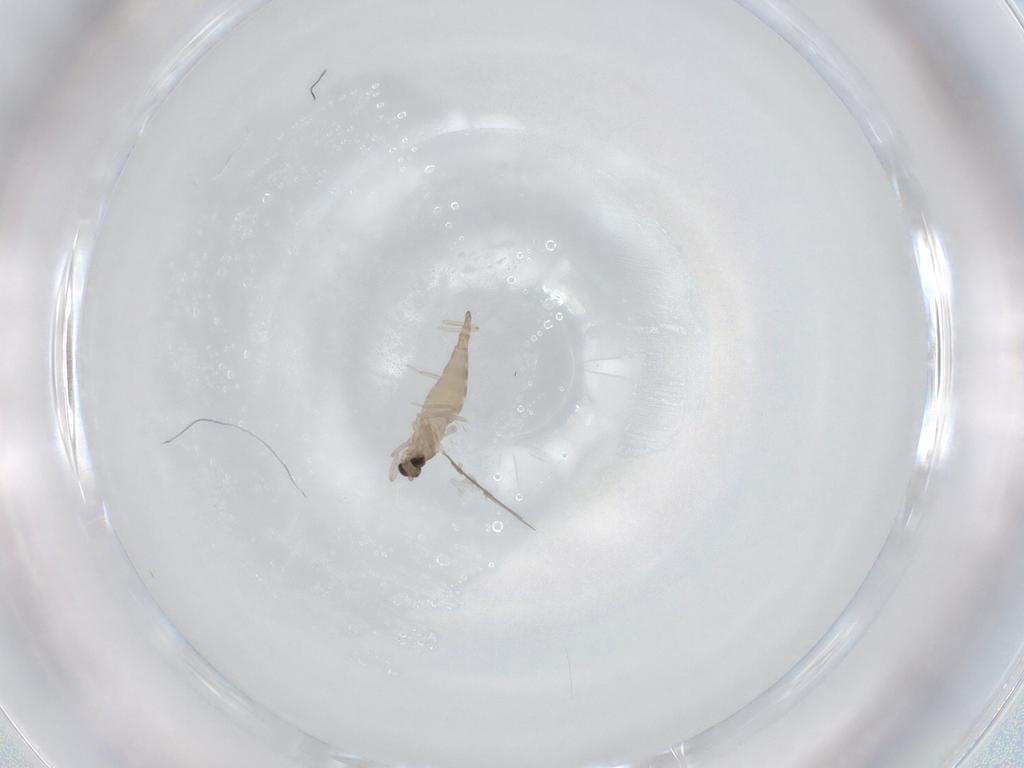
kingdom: Animalia
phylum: Arthropoda
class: Insecta
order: Diptera
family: Cecidomyiidae
